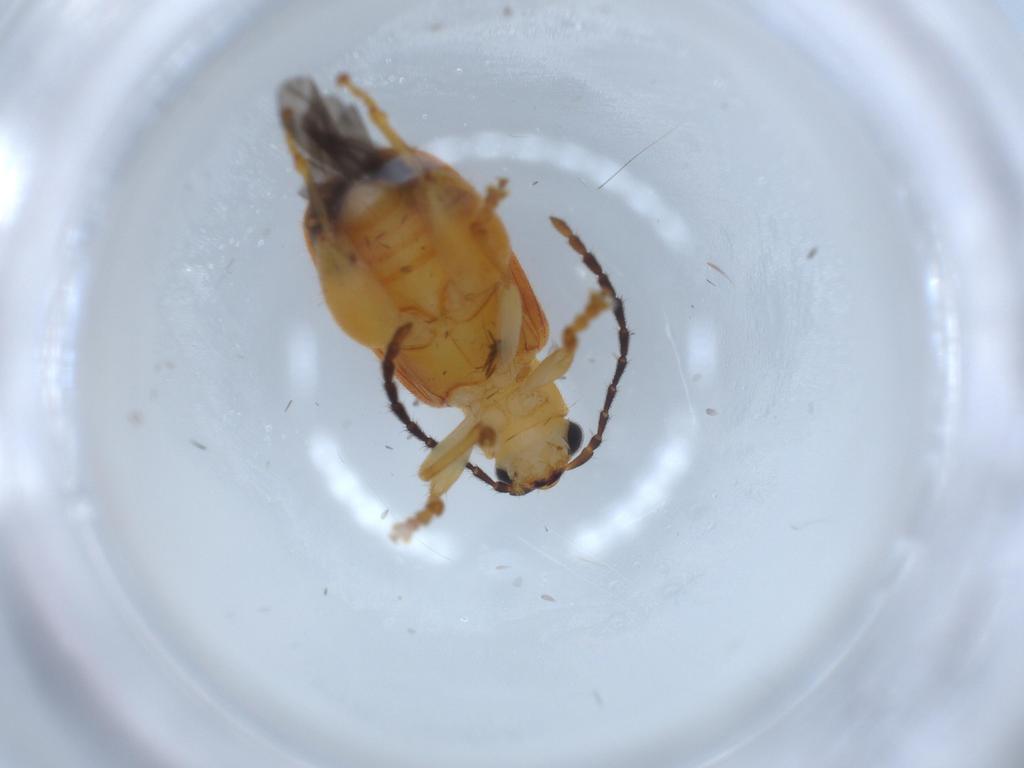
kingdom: Animalia
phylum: Arthropoda
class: Insecta
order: Coleoptera
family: Chrysomelidae
